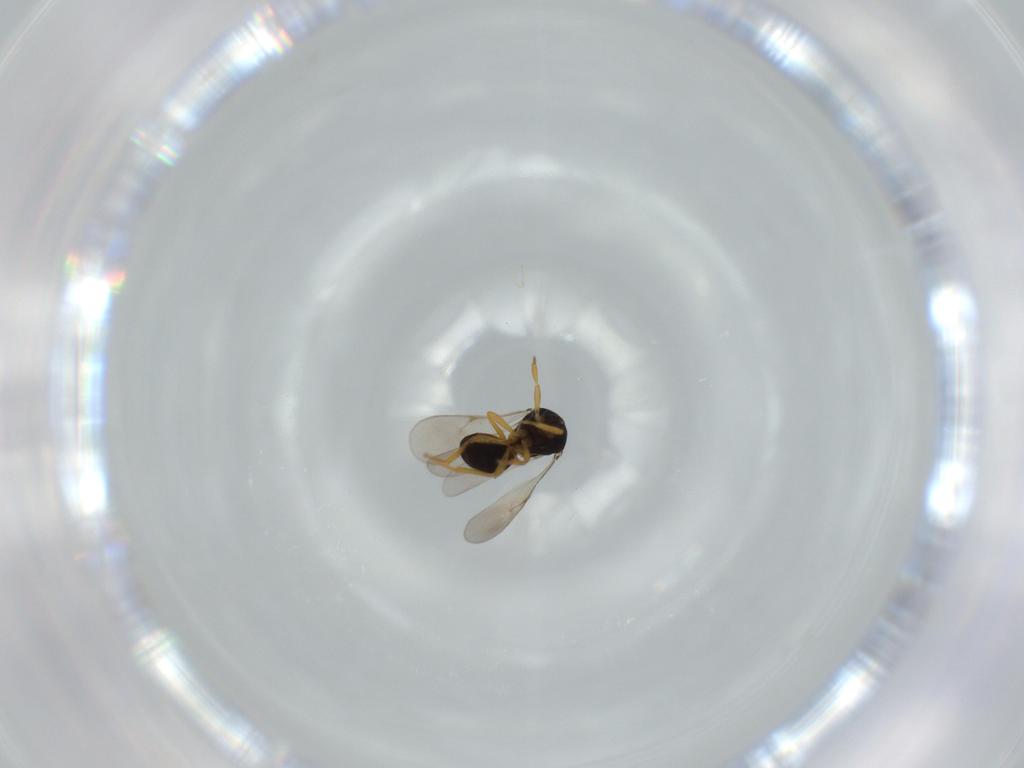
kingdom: Animalia
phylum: Arthropoda
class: Insecta
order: Hymenoptera
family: Scelionidae
